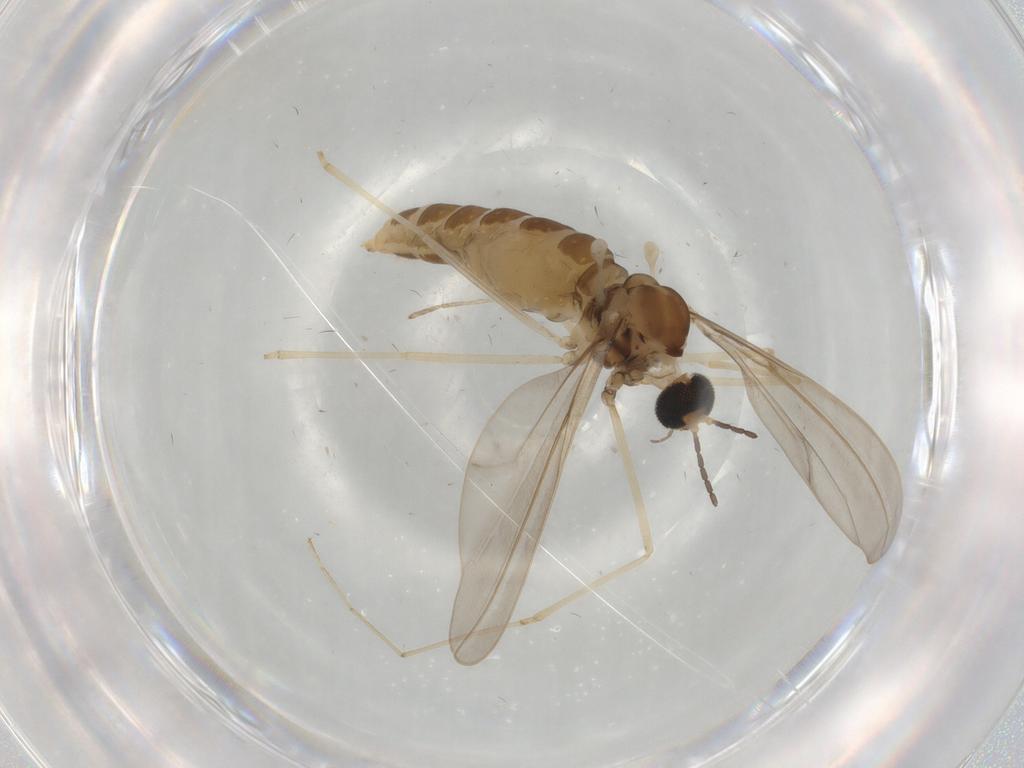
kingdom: Animalia
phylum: Arthropoda
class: Insecta
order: Diptera
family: Cecidomyiidae
